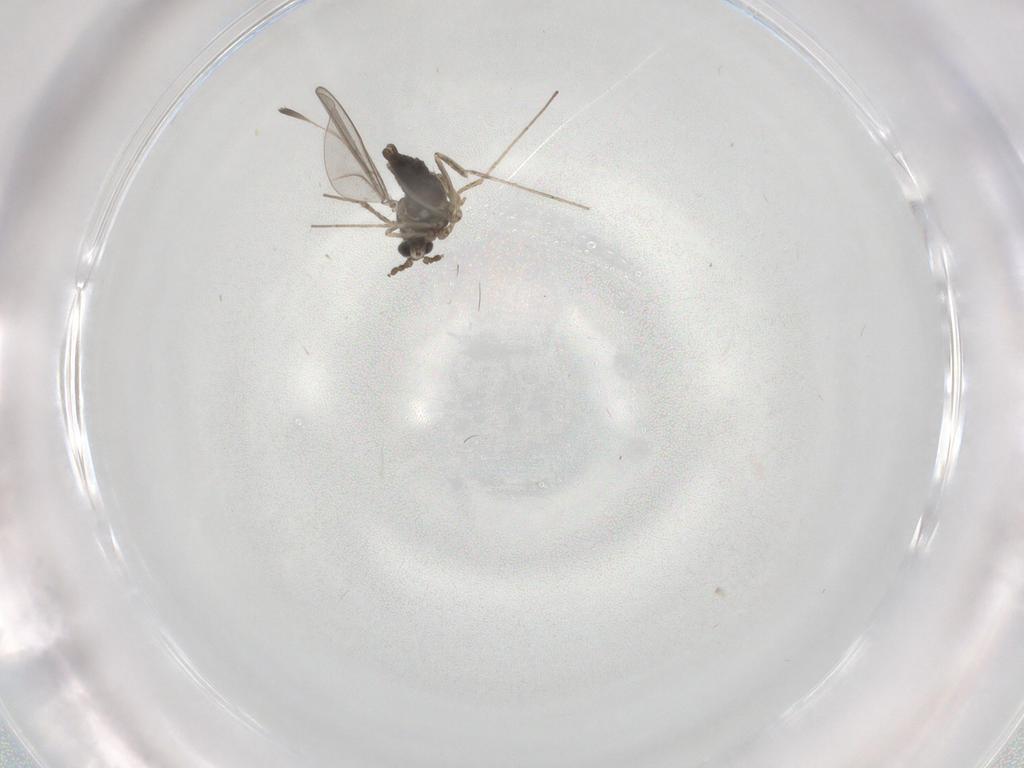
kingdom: Animalia
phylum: Arthropoda
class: Insecta
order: Diptera
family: Cecidomyiidae
